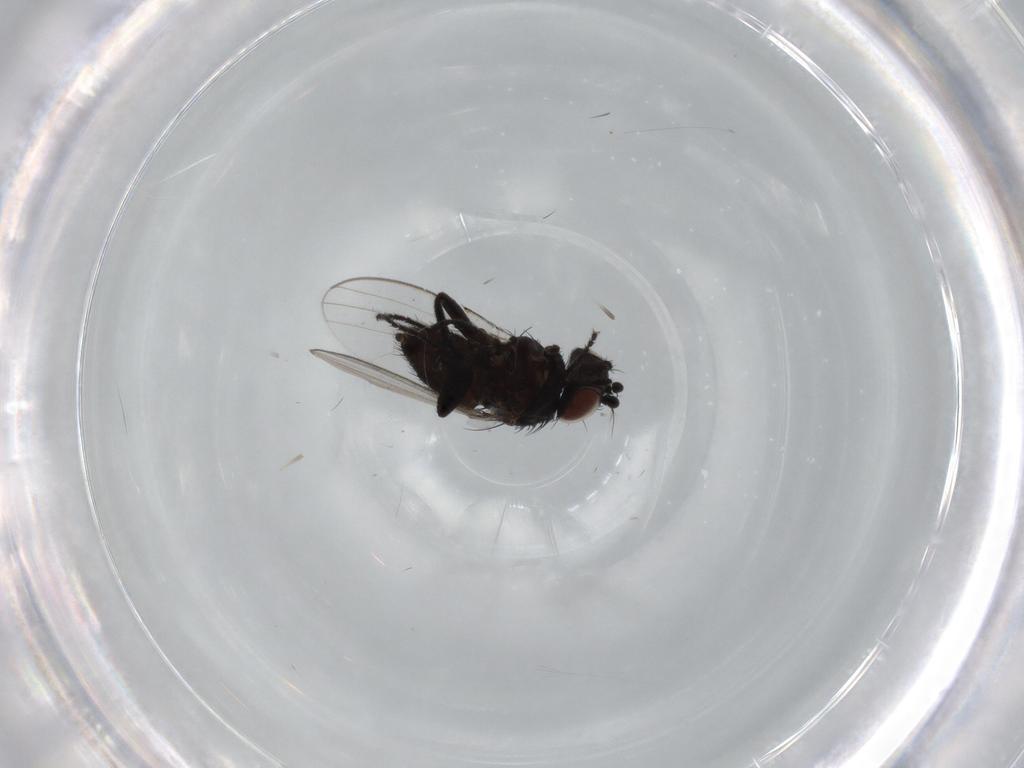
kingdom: Animalia
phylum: Arthropoda
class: Insecta
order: Diptera
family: Milichiidae
